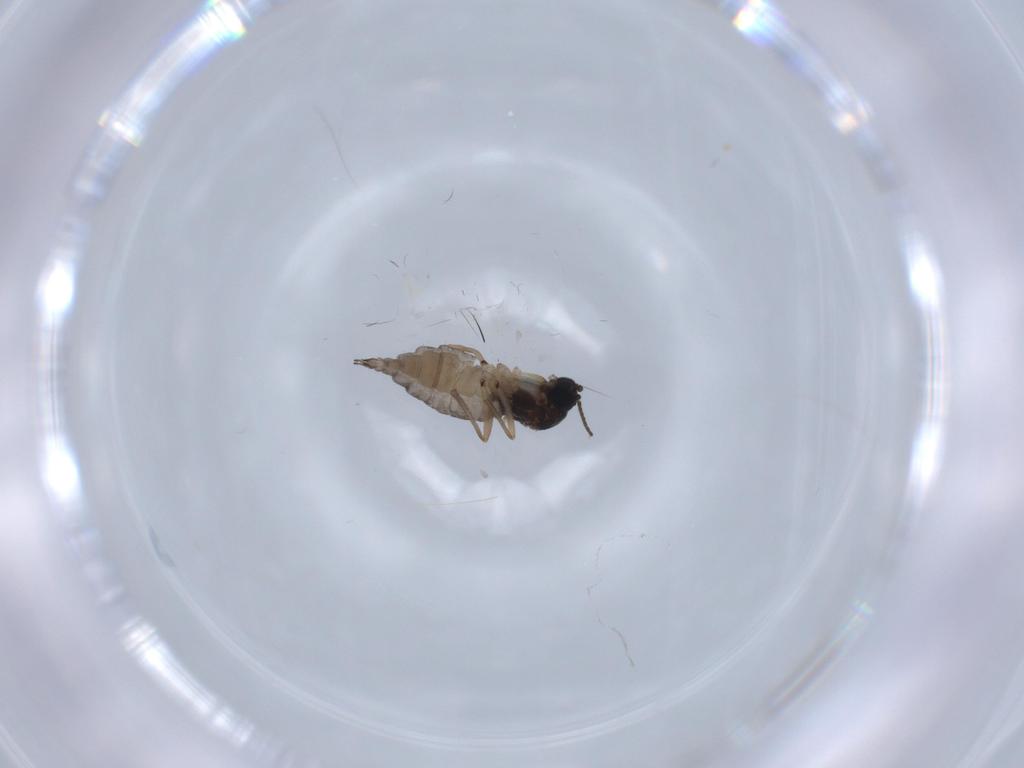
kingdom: Animalia
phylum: Arthropoda
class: Insecta
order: Diptera
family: Sciaridae
